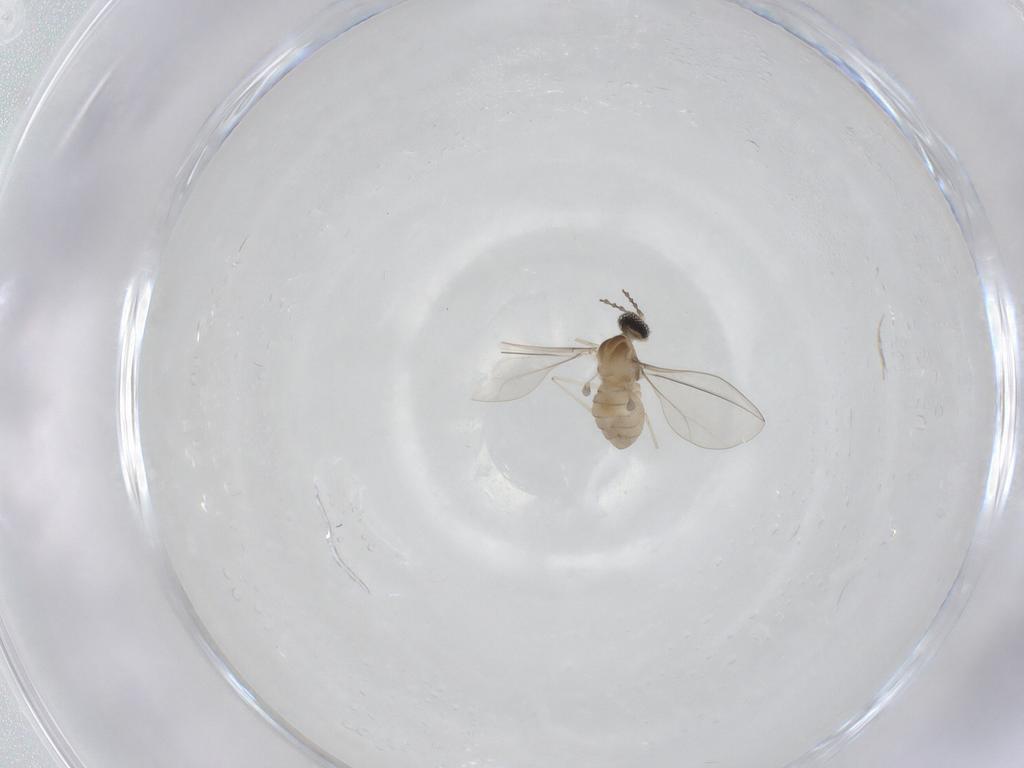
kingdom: Animalia
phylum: Arthropoda
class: Insecta
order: Diptera
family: Cecidomyiidae
